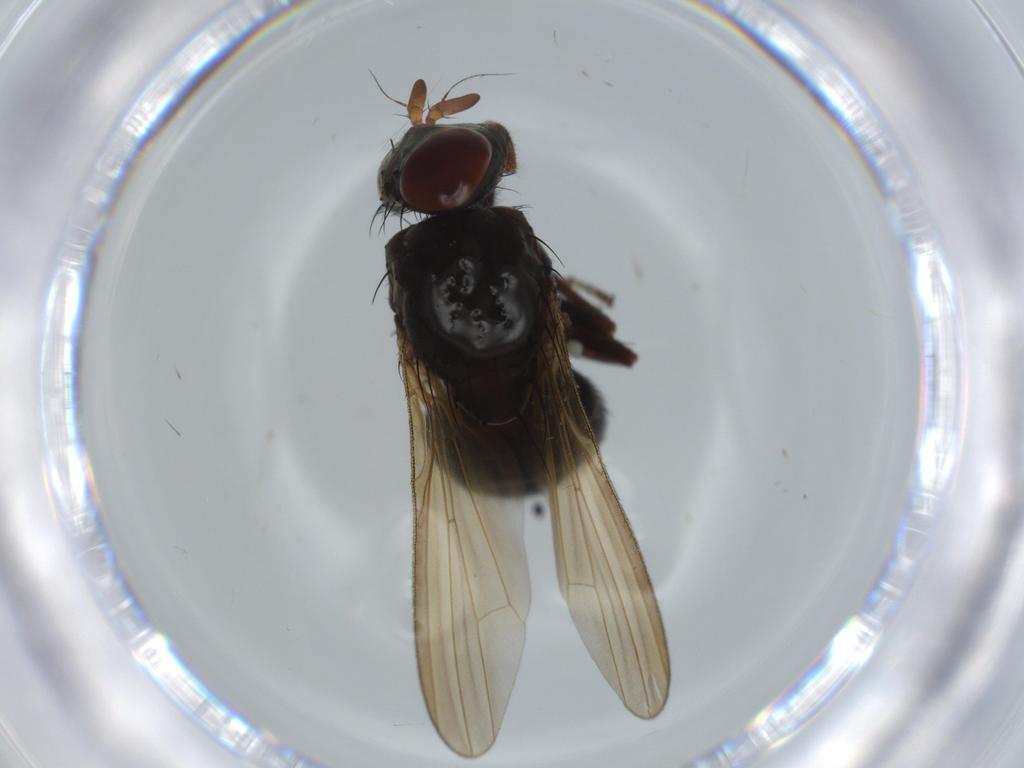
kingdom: Animalia
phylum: Arthropoda
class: Insecta
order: Diptera
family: Lauxaniidae
